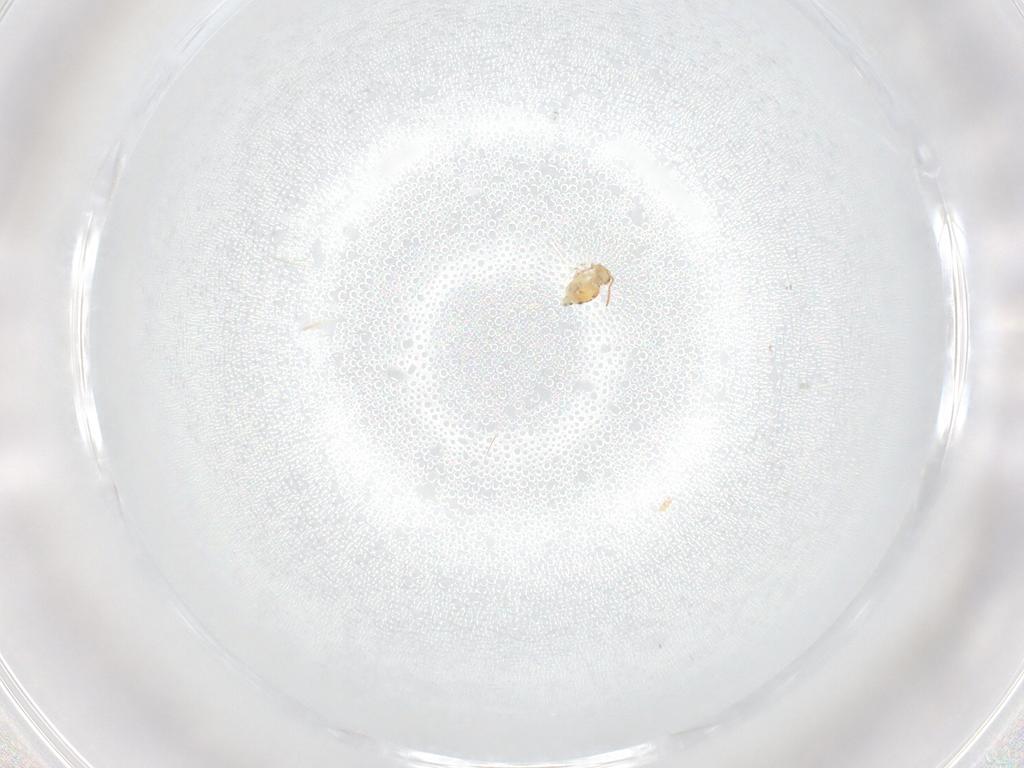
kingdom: Animalia
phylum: Arthropoda
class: Collembola
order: Symphypleona
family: Bourletiellidae
